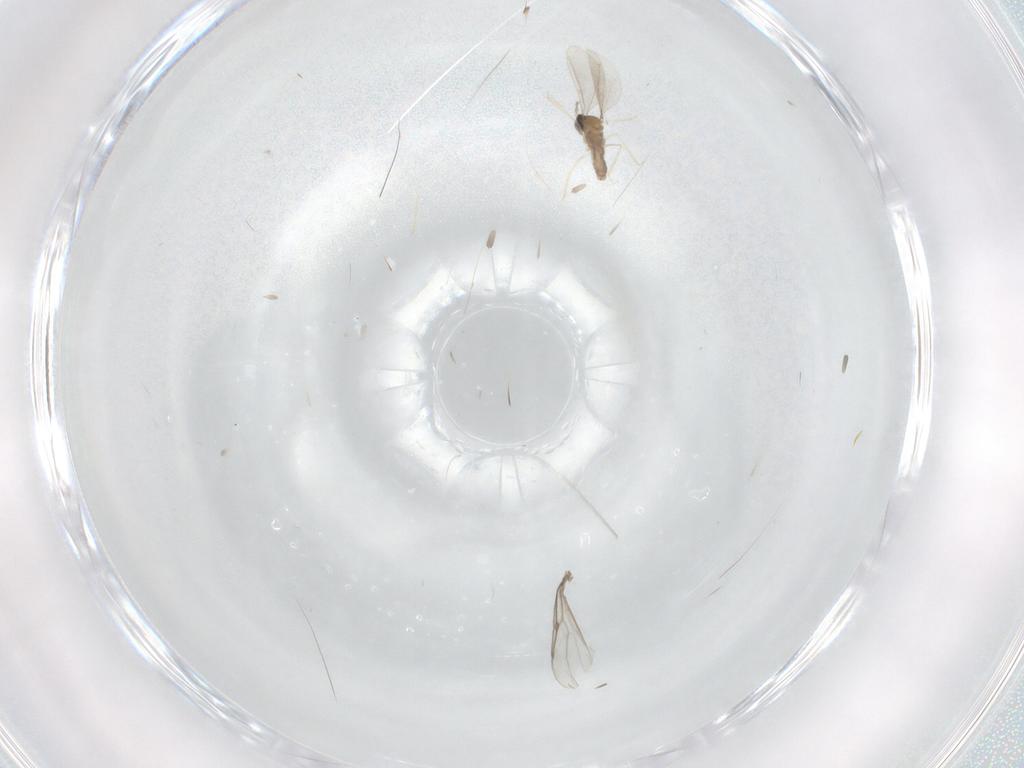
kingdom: Animalia
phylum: Arthropoda
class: Insecta
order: Diptera
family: Cecidomyiidae
